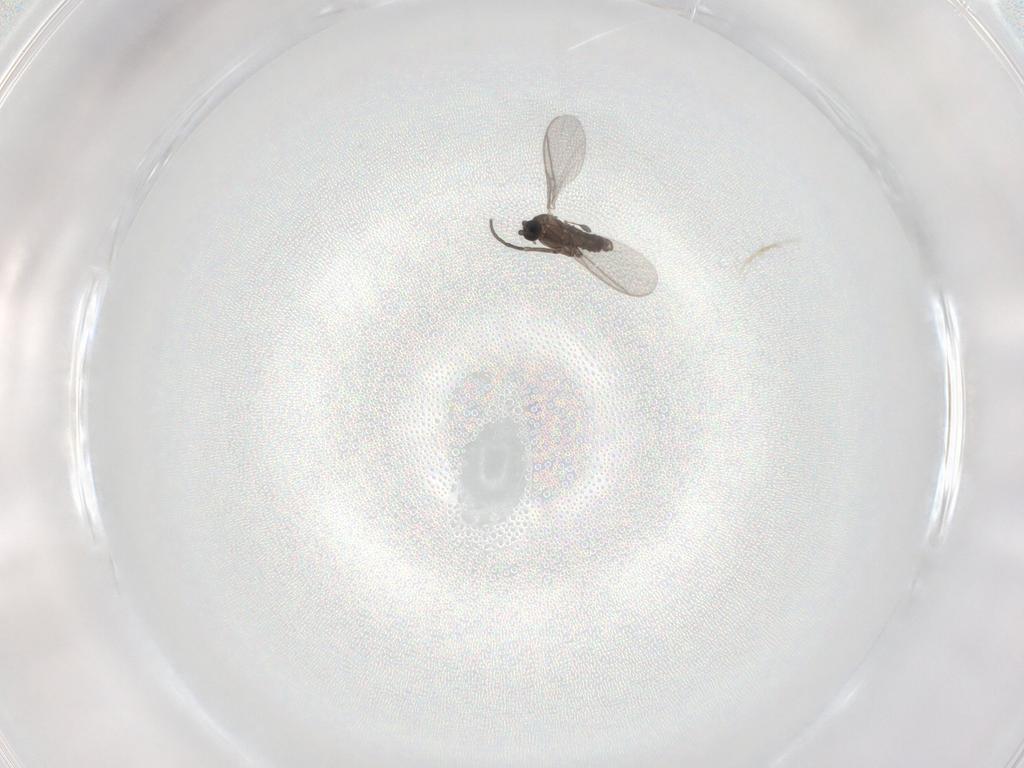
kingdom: Animalia
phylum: Arthropoda
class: Insecta
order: Diptera
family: Sciaridae
